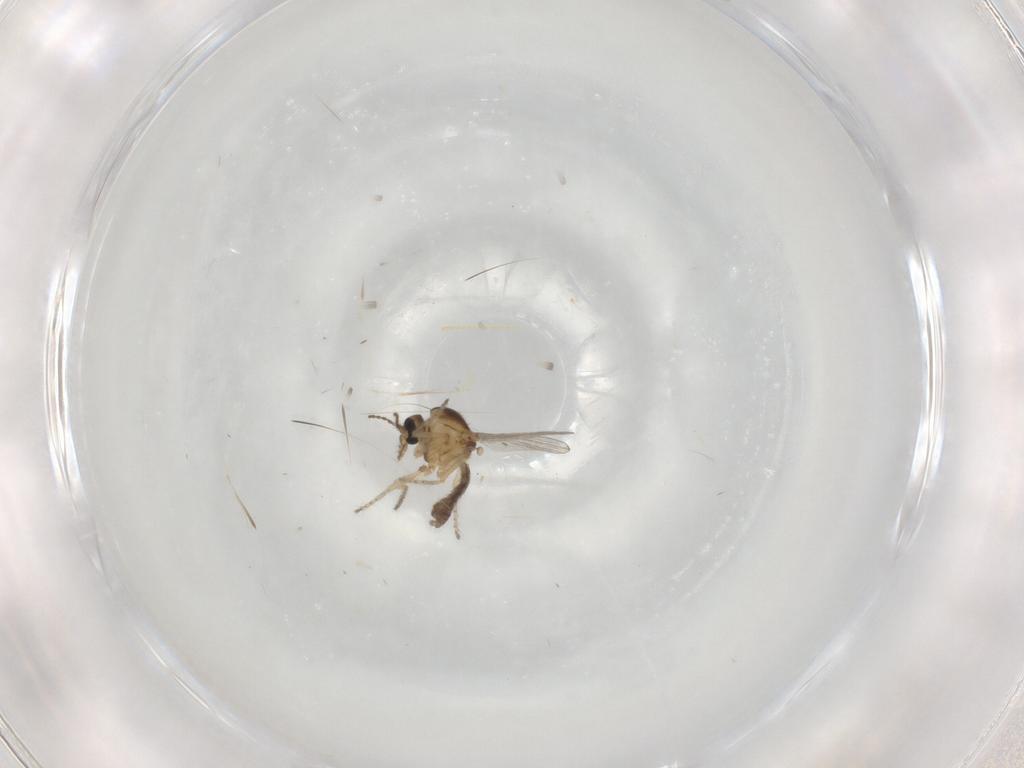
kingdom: Animalia
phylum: Arthropoda
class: Insecta
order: Diptera
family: Ceratopogonidae
